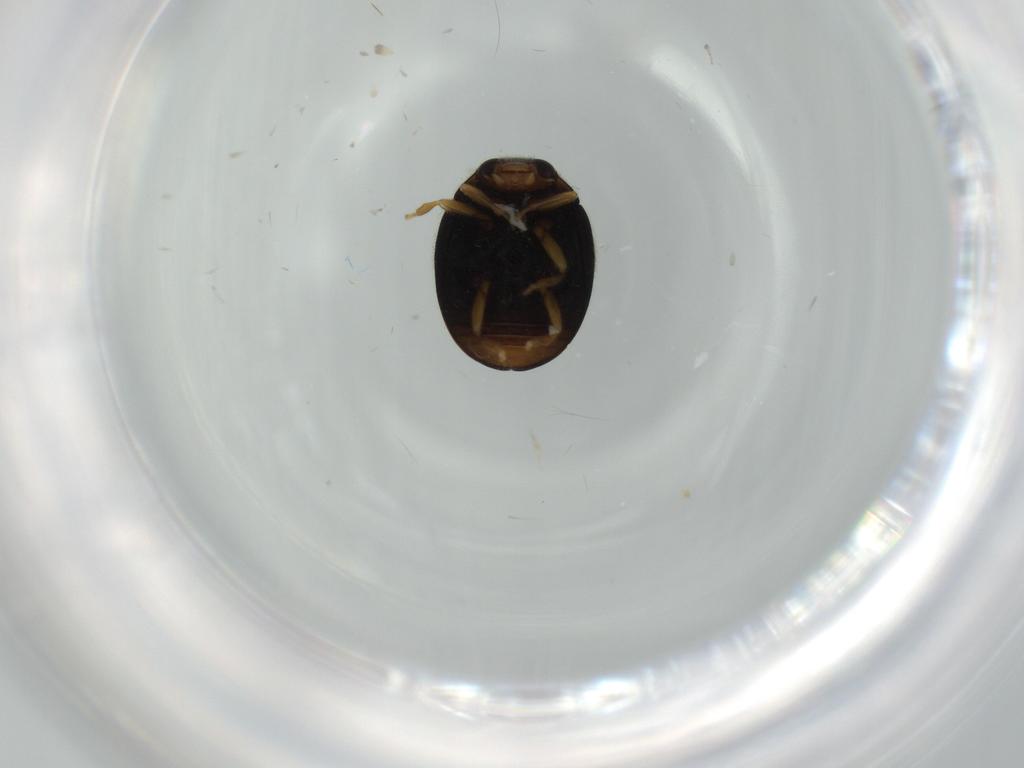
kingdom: Animalia
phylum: Arthropoda
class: Insecta
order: Coleoptera
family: Coccinellidae
